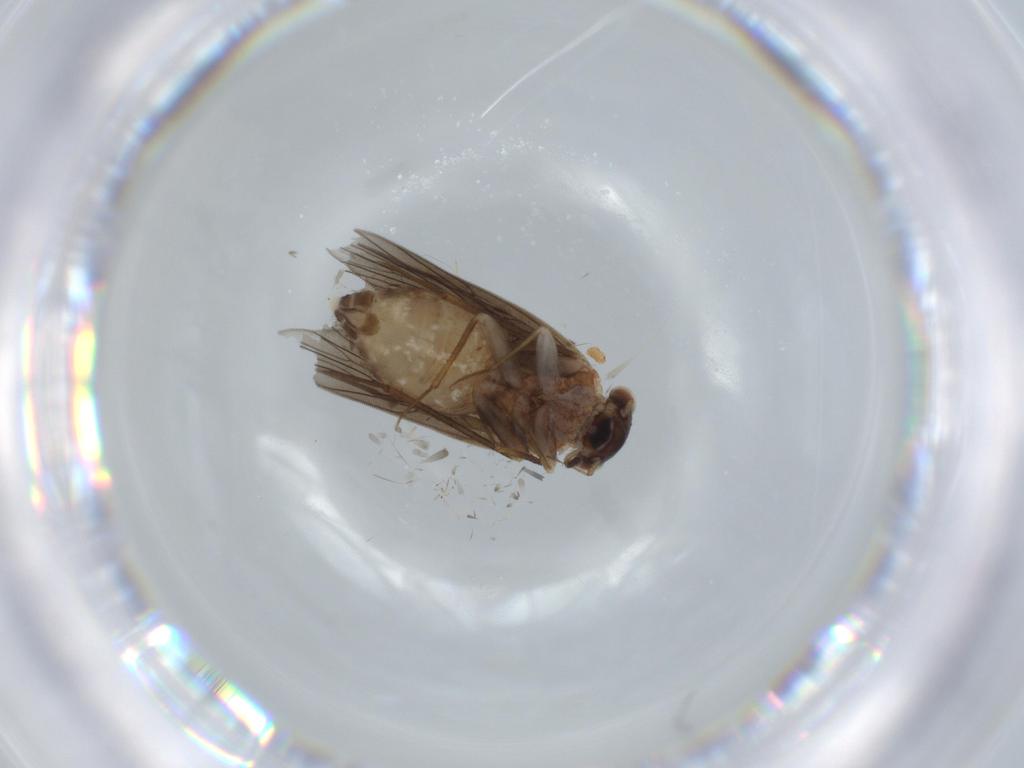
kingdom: Animalia
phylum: Arthropoda
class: Insecta
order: Psocodea
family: Lepidopsocidae
